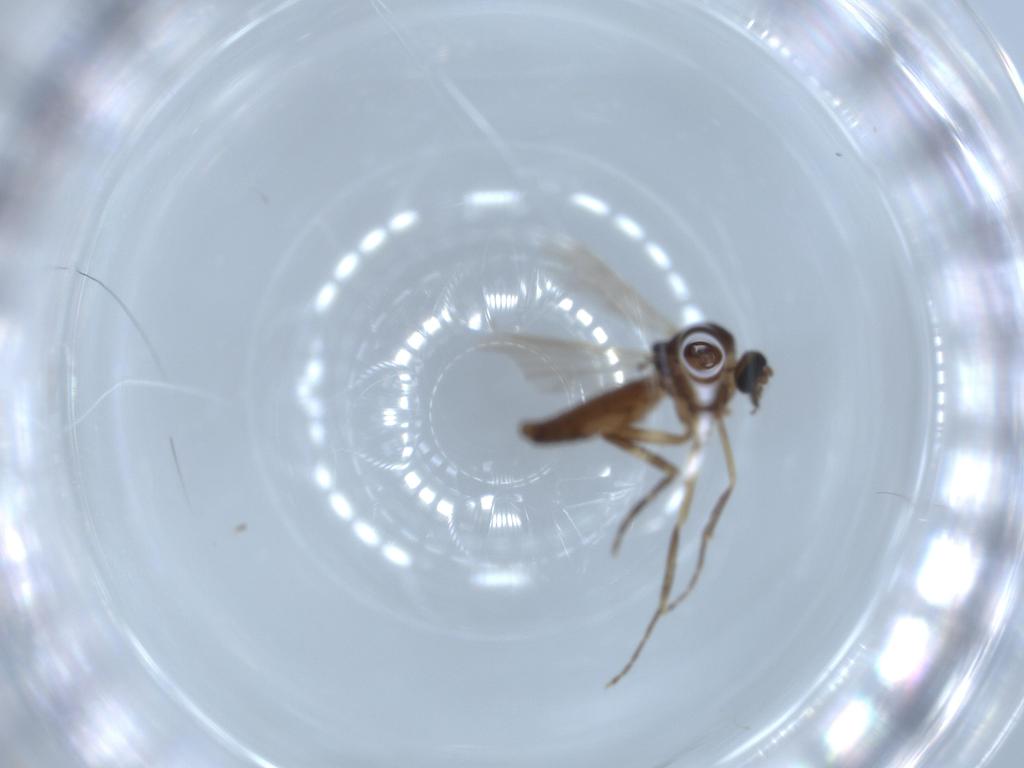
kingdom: Animalia
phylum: Arthropoda
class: Insecta
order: Diptera
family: Ceratopogonidae
